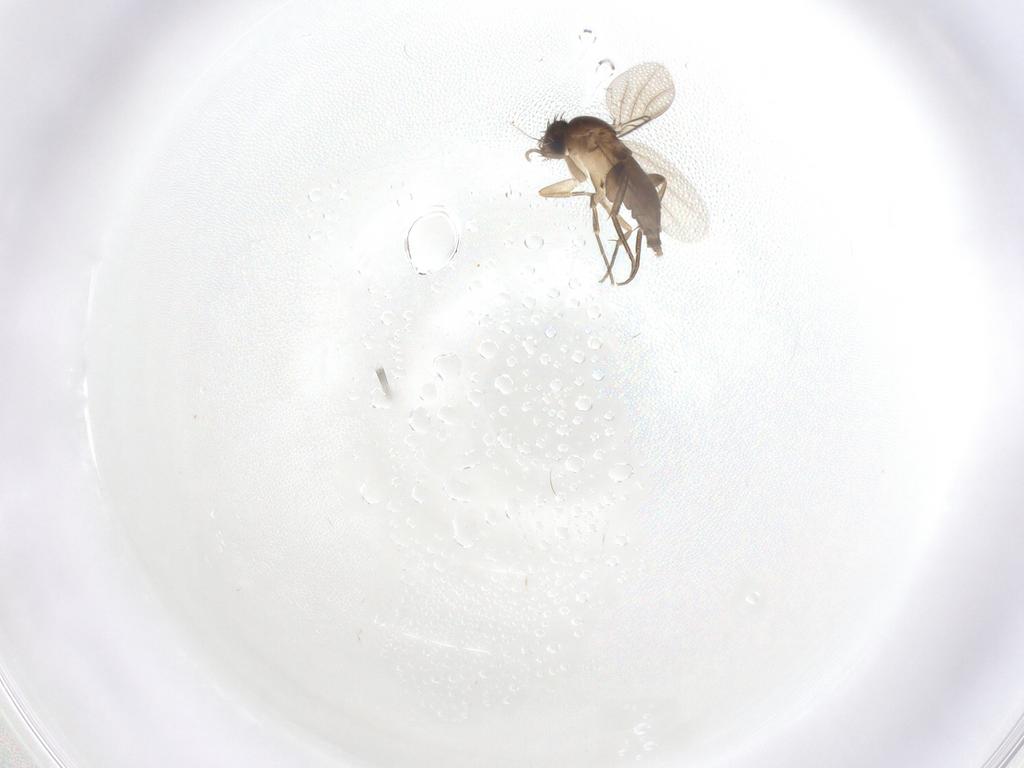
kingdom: Animalia
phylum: Arthropoda
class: Insecta
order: Diptera
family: Phoridae
